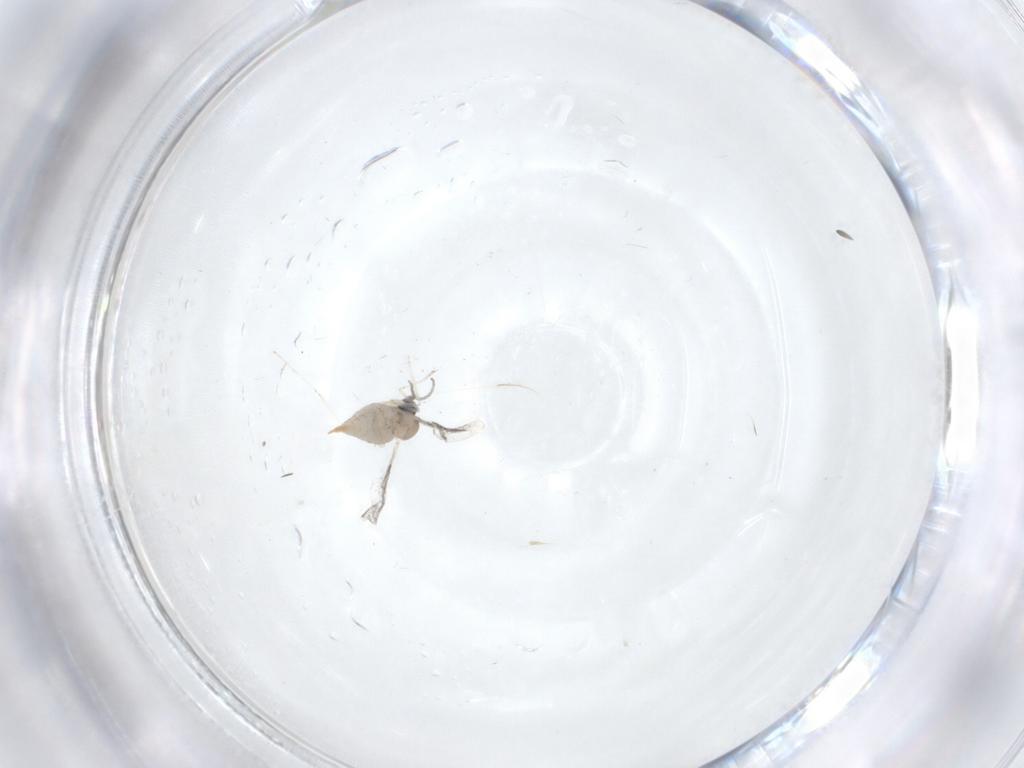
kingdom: Animalia
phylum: Arthropoda
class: Insecta
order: Diptera
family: Cecidomyiidae
